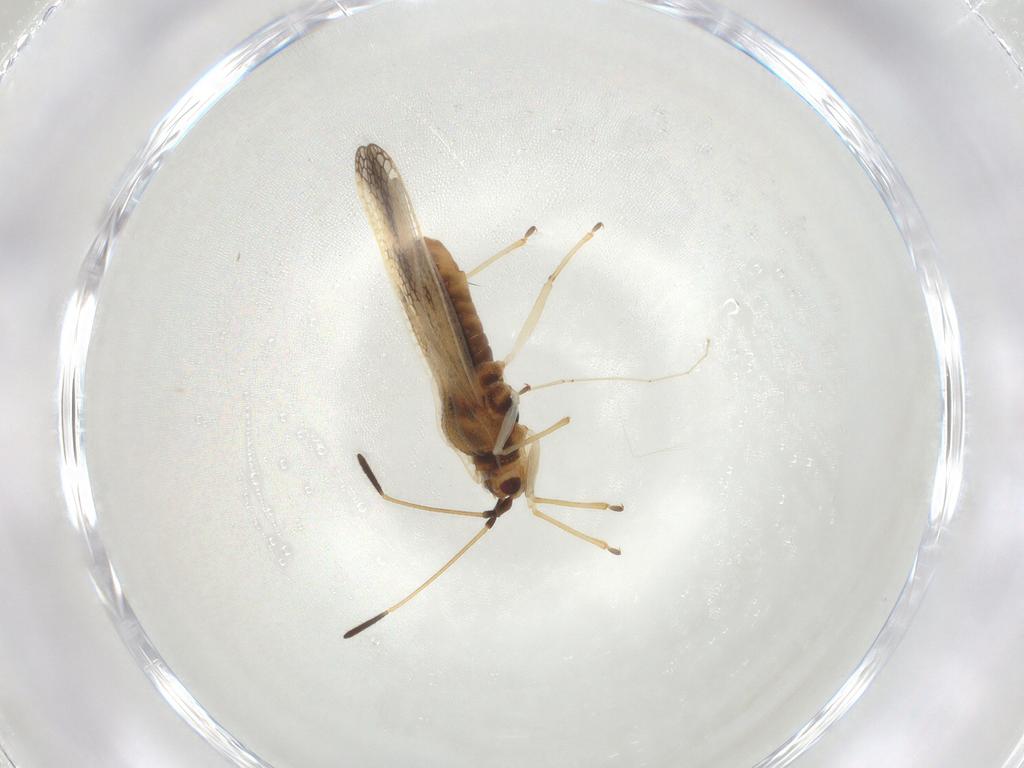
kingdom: Animalia
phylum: Arthropoda
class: Insecta
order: Hemiptera
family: Tingidae
